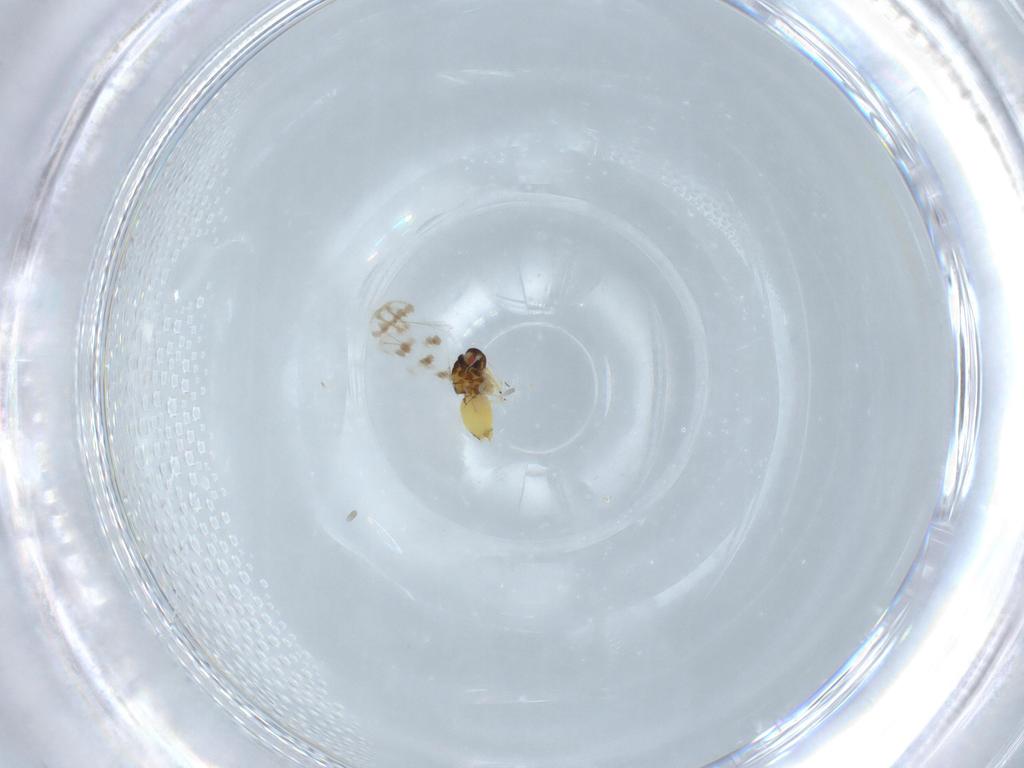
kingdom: Animalia
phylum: Arthropoda
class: Insecta
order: Hemiptera
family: Aleyrodidae
